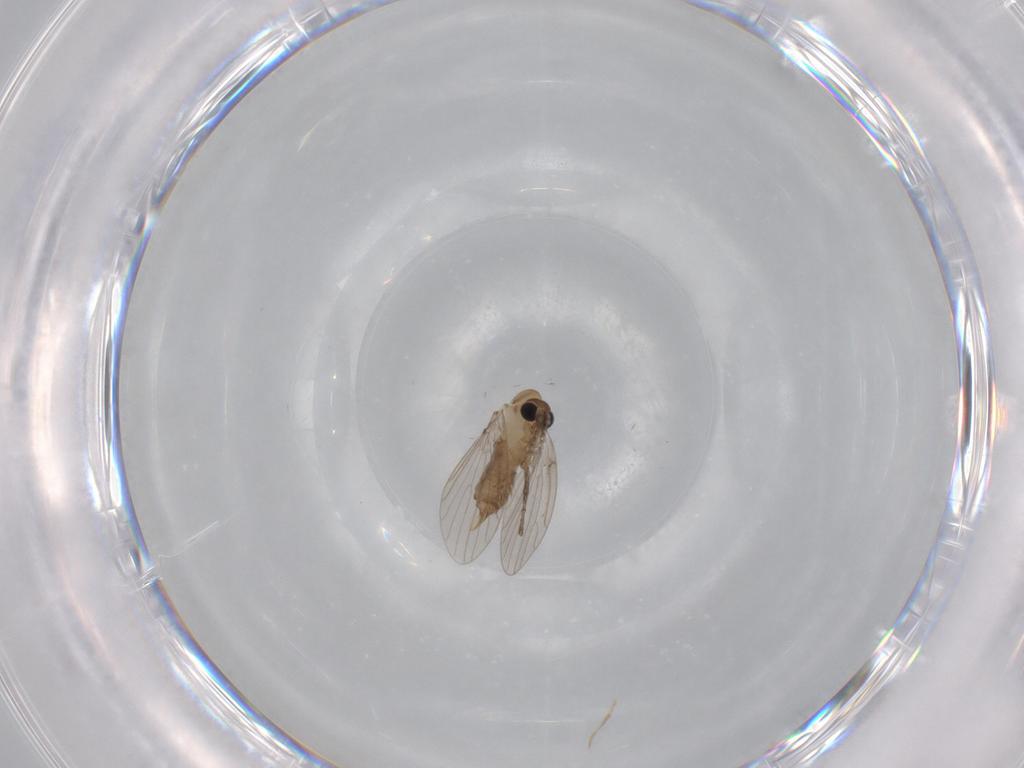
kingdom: Animalia
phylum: Arthropoda
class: Insecta
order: Diptera
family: Psychodidae
